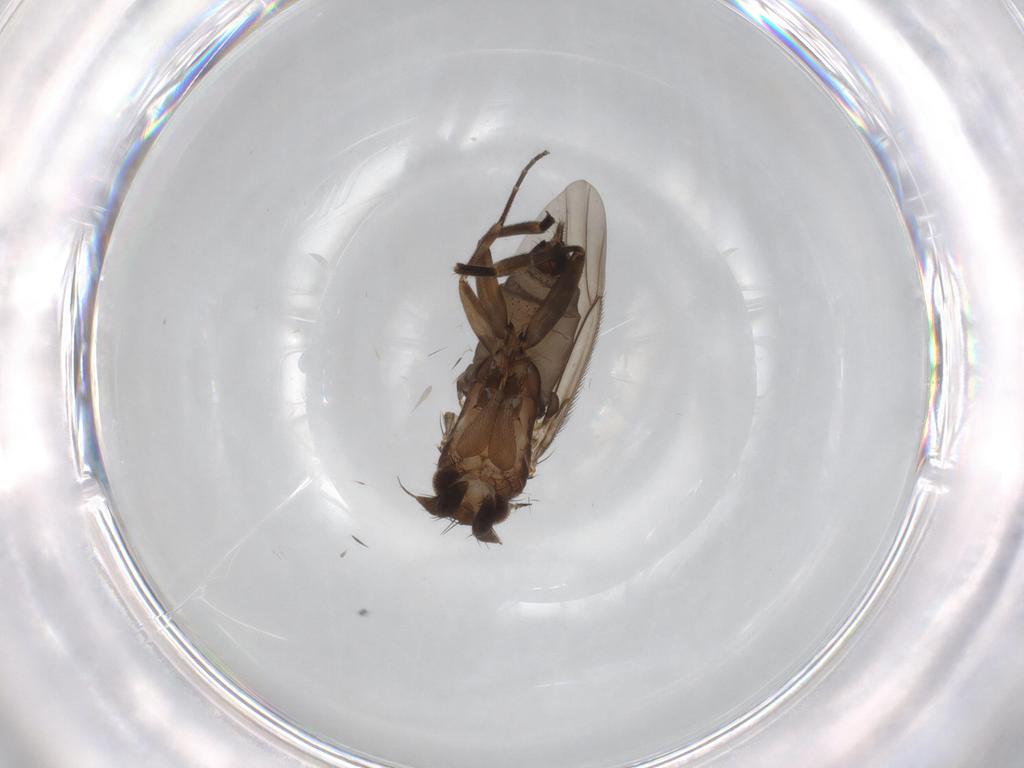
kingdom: Animalia
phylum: Arthropoda
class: Insecta
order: Diptera
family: Phoridae
